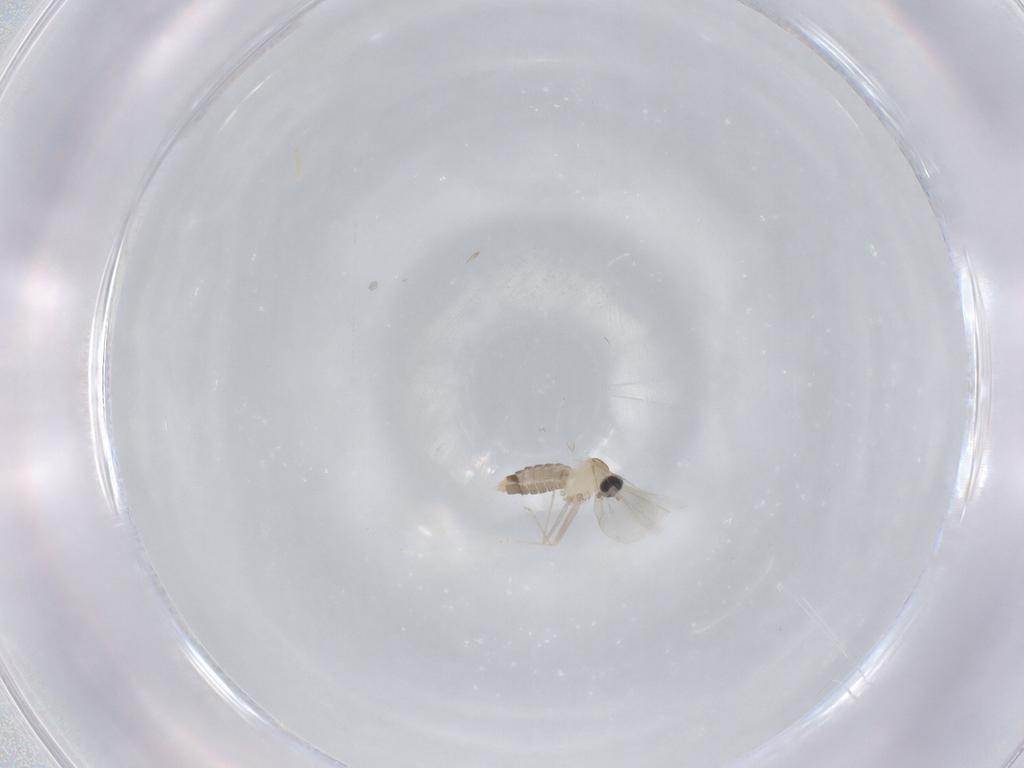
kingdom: Animalia
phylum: Arthropoda
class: Insecta
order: Diptera
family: Cecidomyiidae
